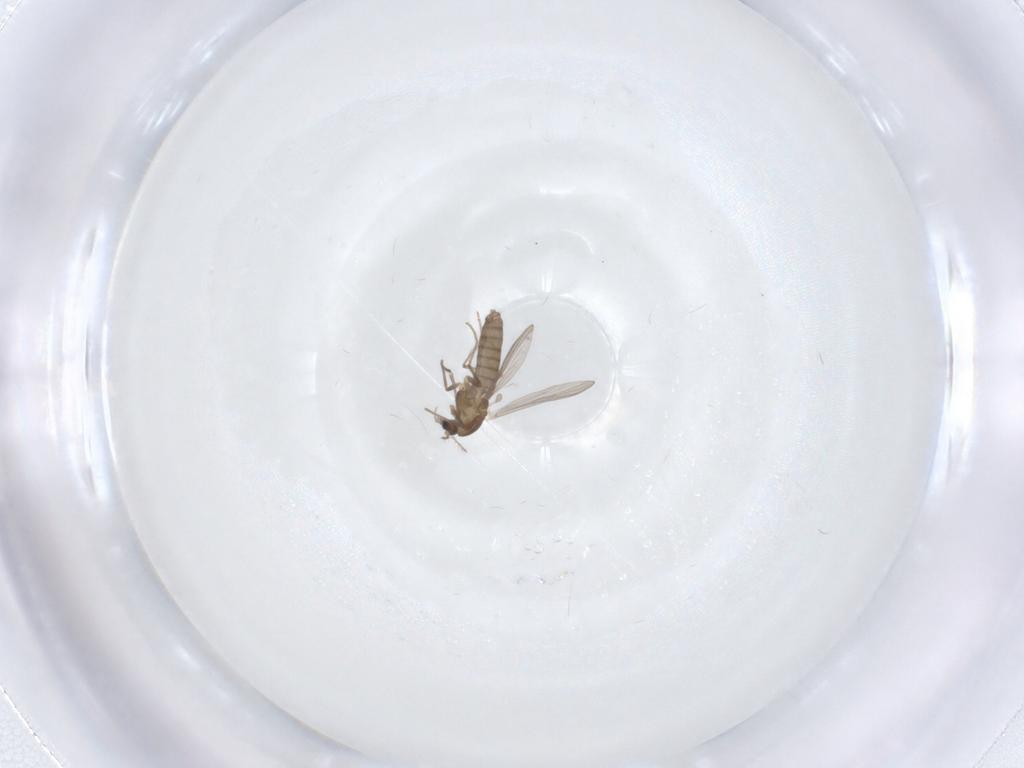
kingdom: Animalia
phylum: Arthropoda
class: Insecta
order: Diptera
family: Chironomidae
